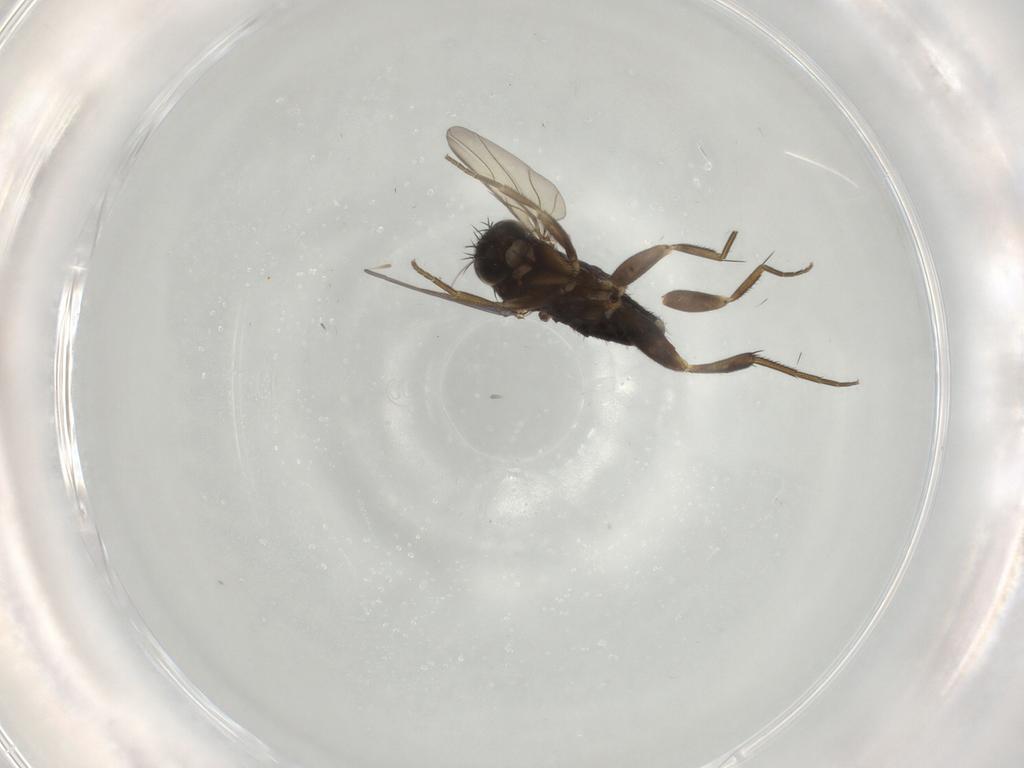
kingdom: Animalia
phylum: Arthropoda
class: Insecta
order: Diptera
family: Phoridae
